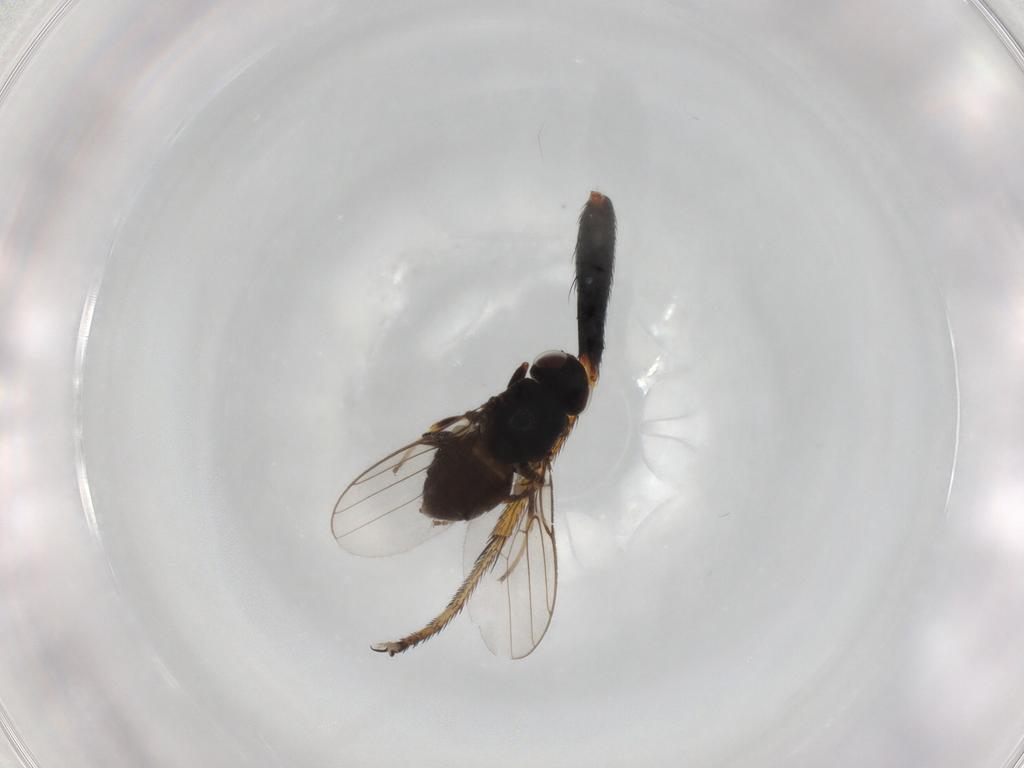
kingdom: Animalia
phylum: Arthropoda
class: Insecta
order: Diptera
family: Chloropidae
